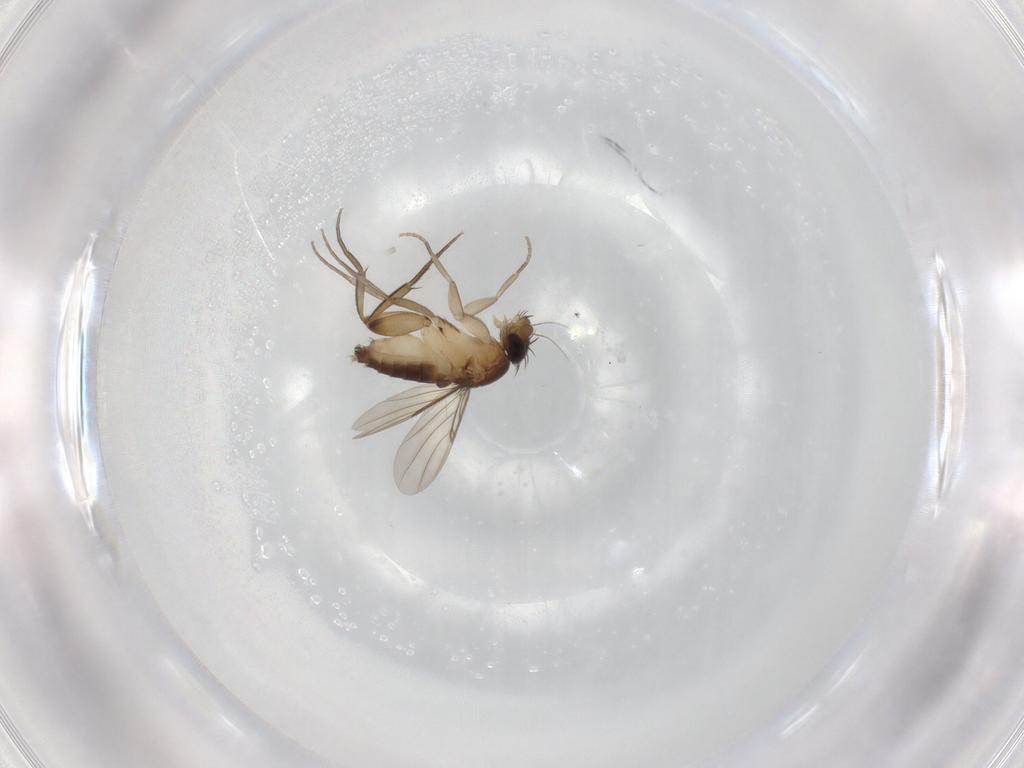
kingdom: Animalia
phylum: Arthropoda
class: Insecta
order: Diptera
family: Phoridae
